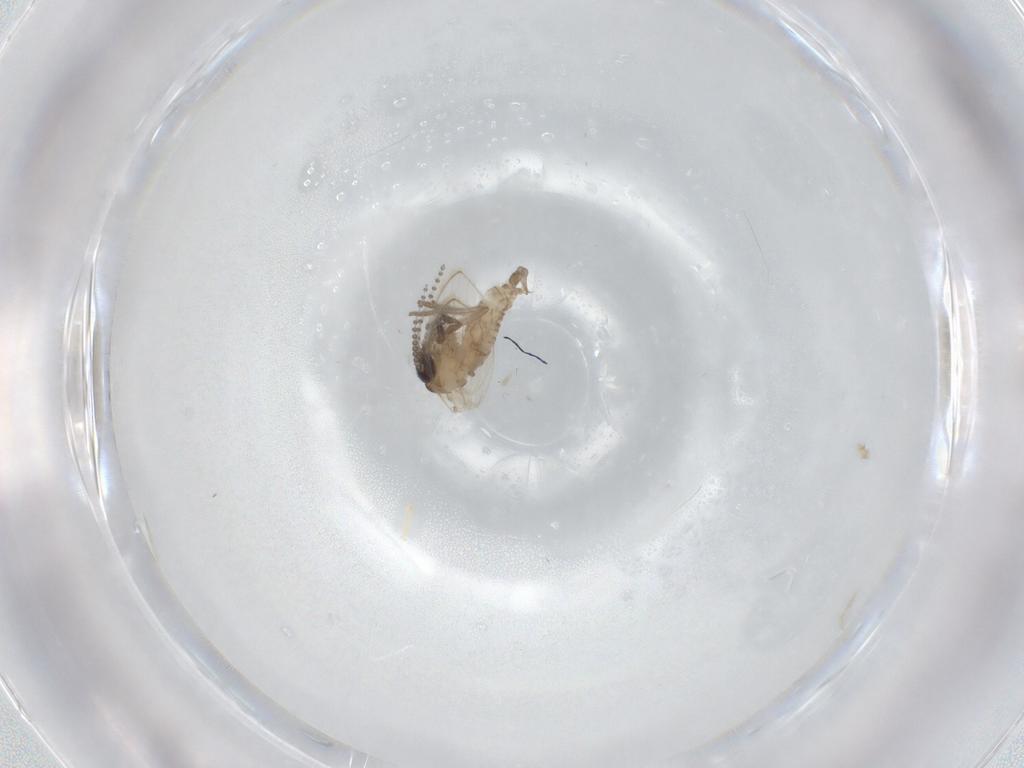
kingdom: Animalia
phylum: Arthropoda
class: Insecta
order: Diptera
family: Psychodidae
